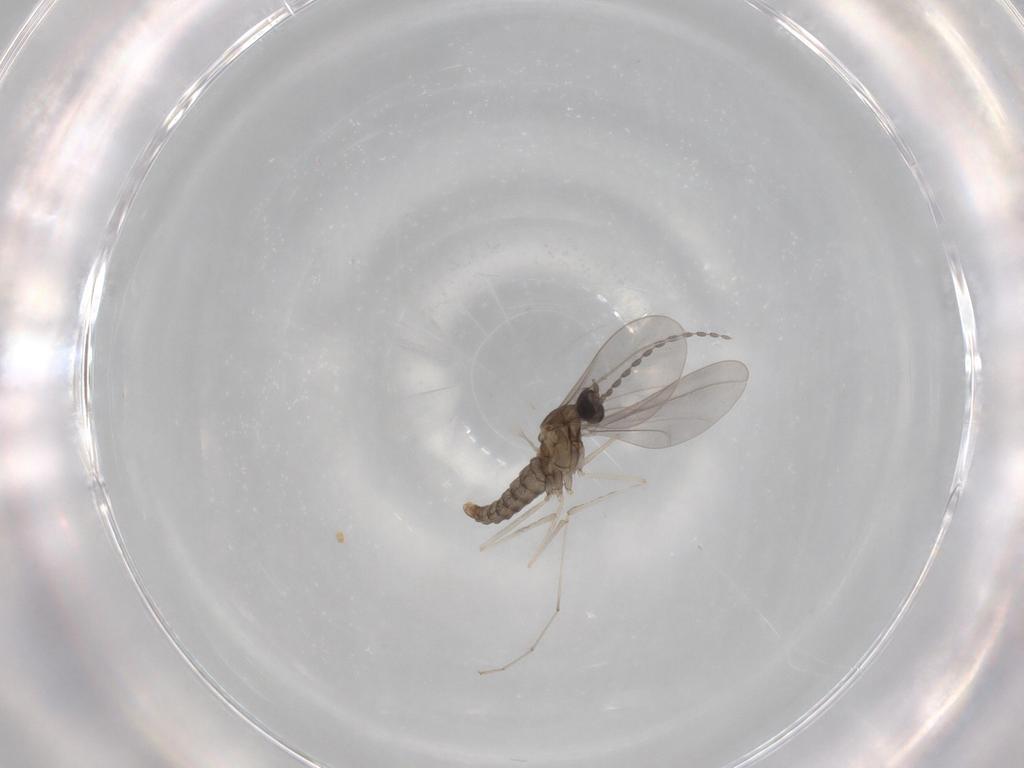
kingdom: Animalia
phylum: Arthropoda
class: Insecta
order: Diptera
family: Cecidomyiidae
